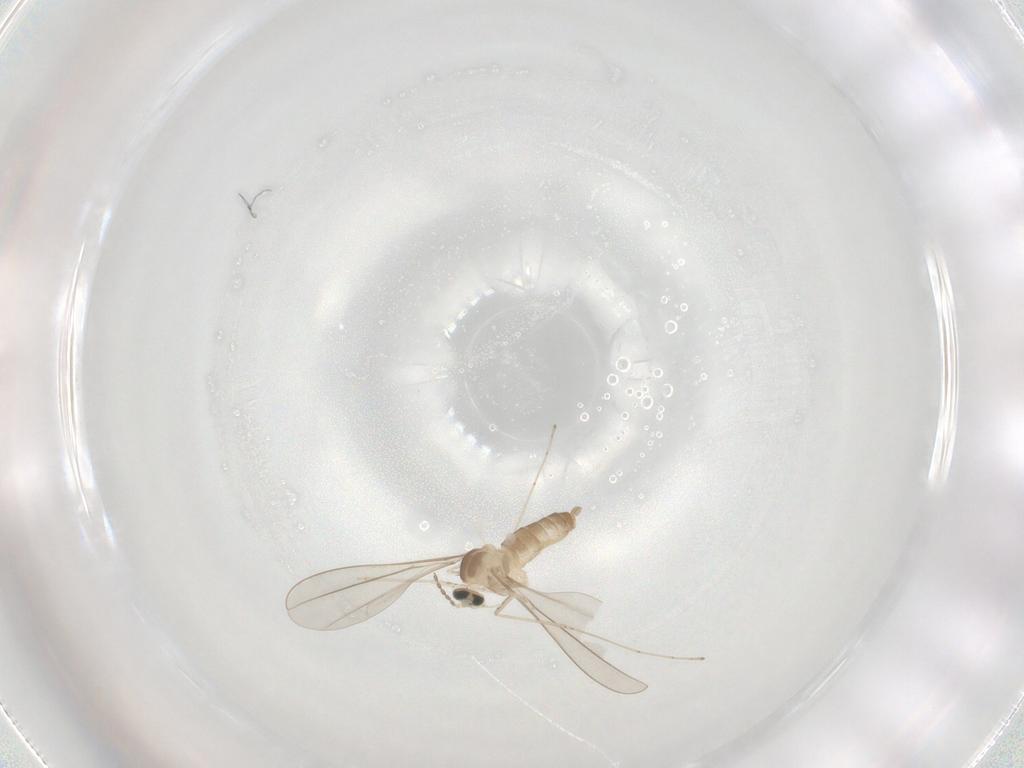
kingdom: Animalia
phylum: Arthropoda
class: Insecta
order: Diptera
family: Cecidomyiidae
